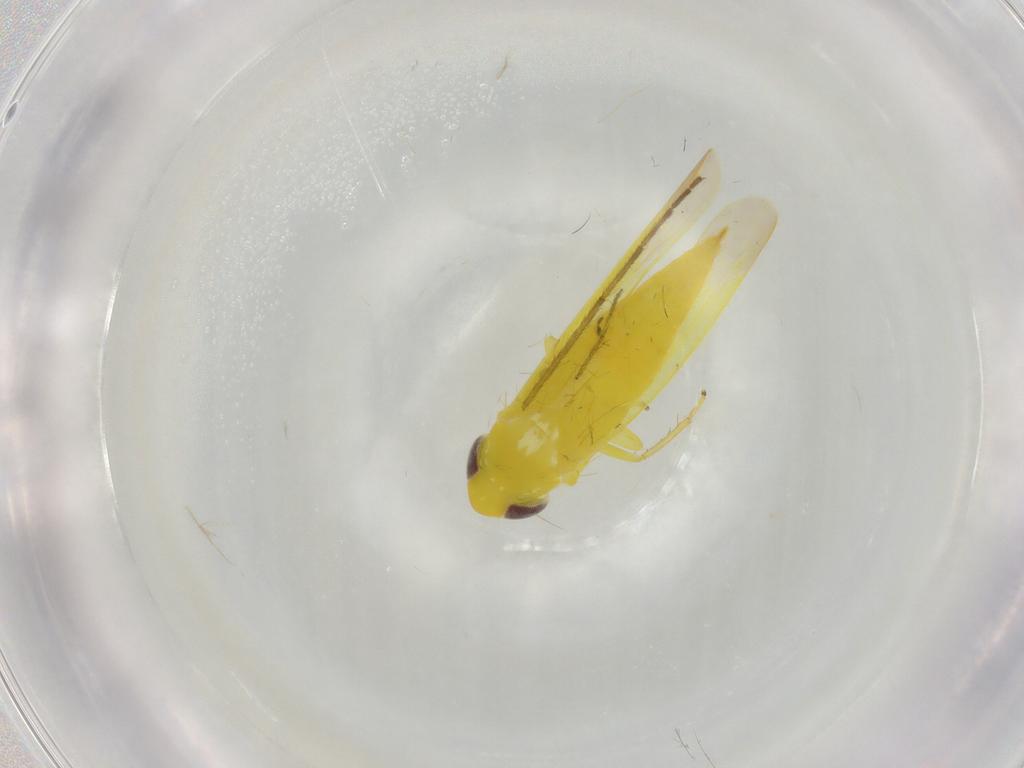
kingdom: Animalia
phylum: Arthropoda
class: Insecta
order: Hemiptera
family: Cicadellidae
